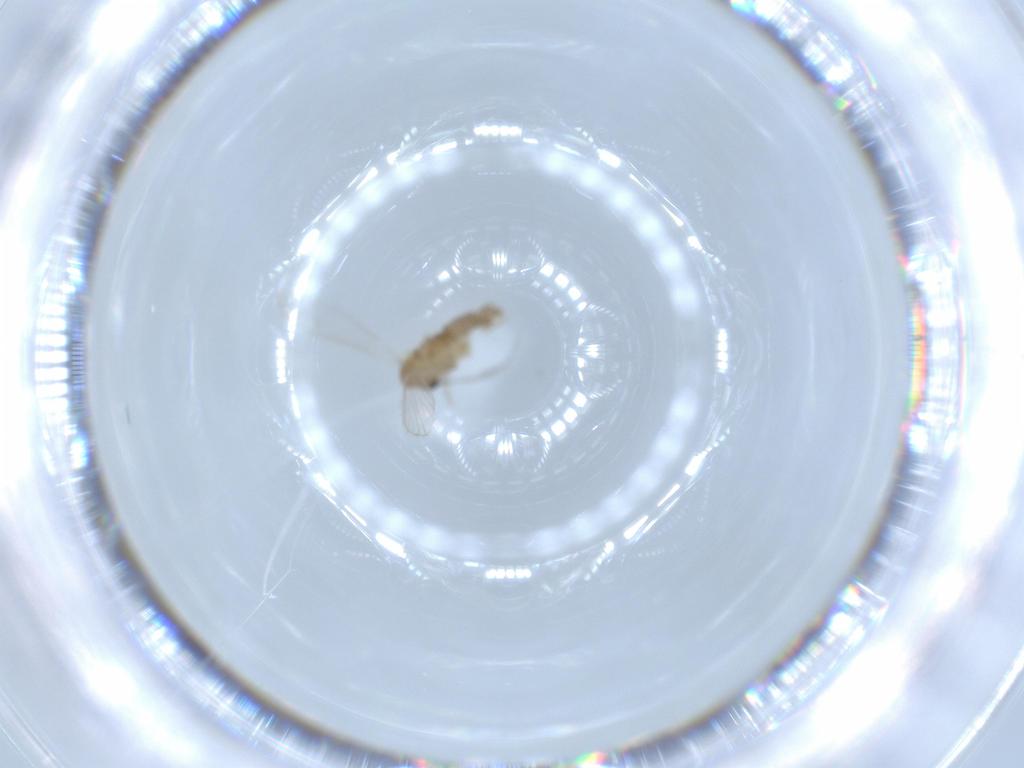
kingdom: Animalia
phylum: Arthropoda
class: Insecta
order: Diptera
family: Psychodidae
